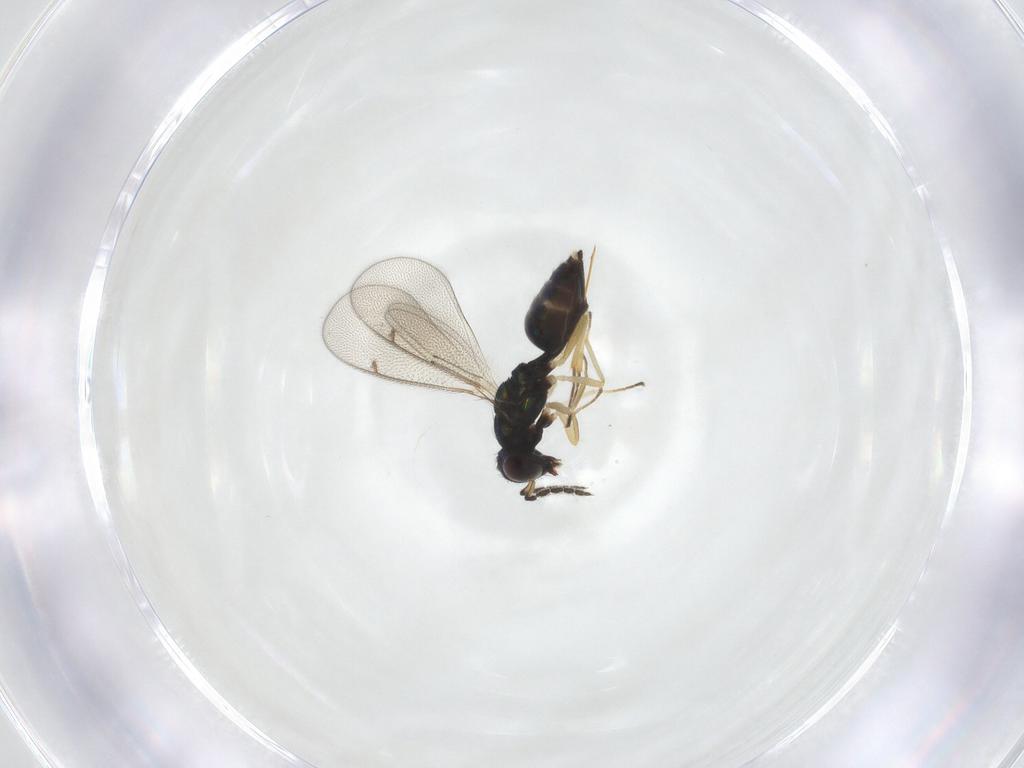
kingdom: Animalia
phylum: Arthropoda
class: Insecta
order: Hymenoptera
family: Eulophidae
